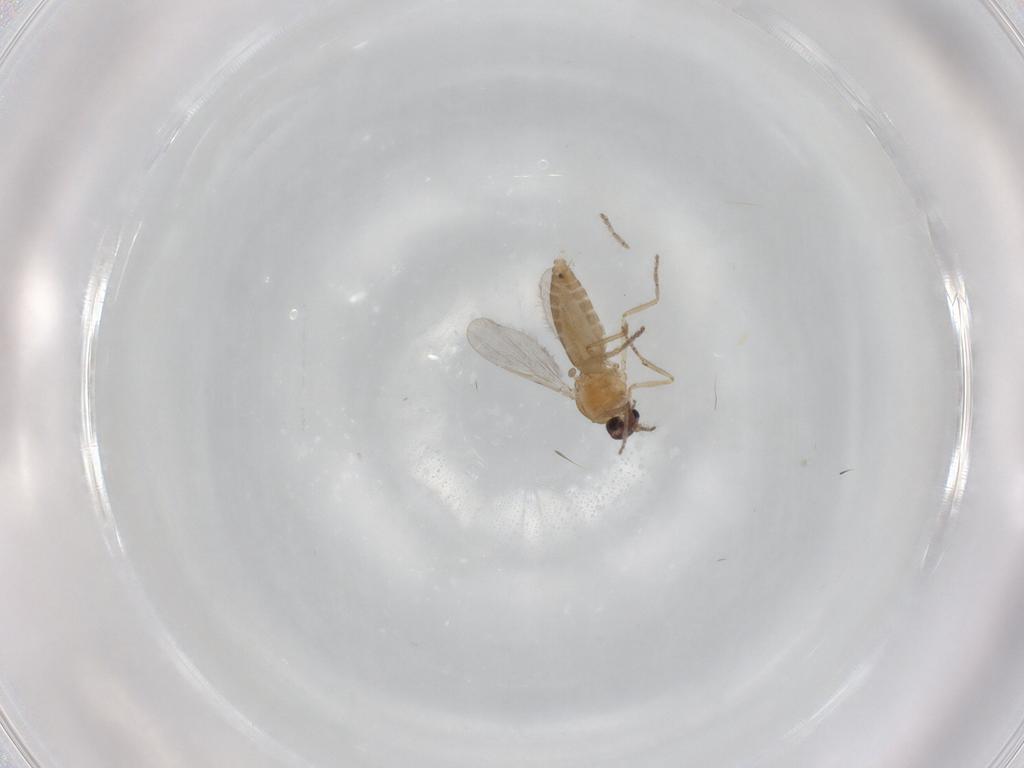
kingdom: Animalia
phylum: Arthropoda
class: Insecta
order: Diptera
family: Ceratopogonidae
